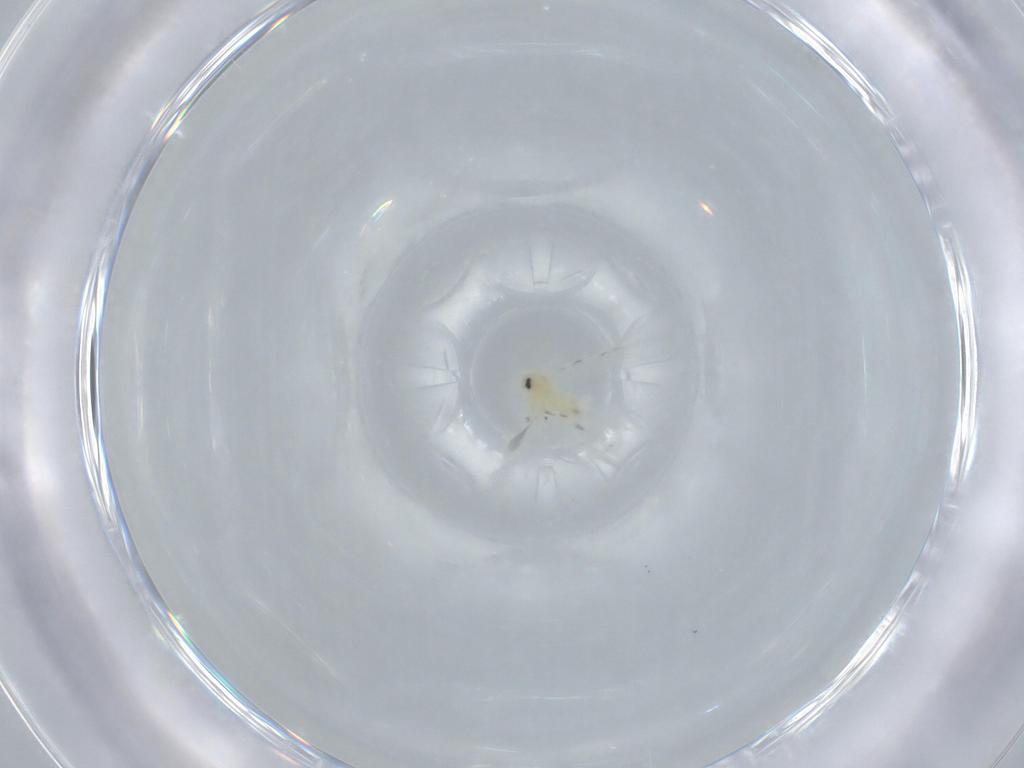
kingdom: Animalia
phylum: Arthropoda
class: Insecta
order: Hemiptera
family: Aleyrodidae
